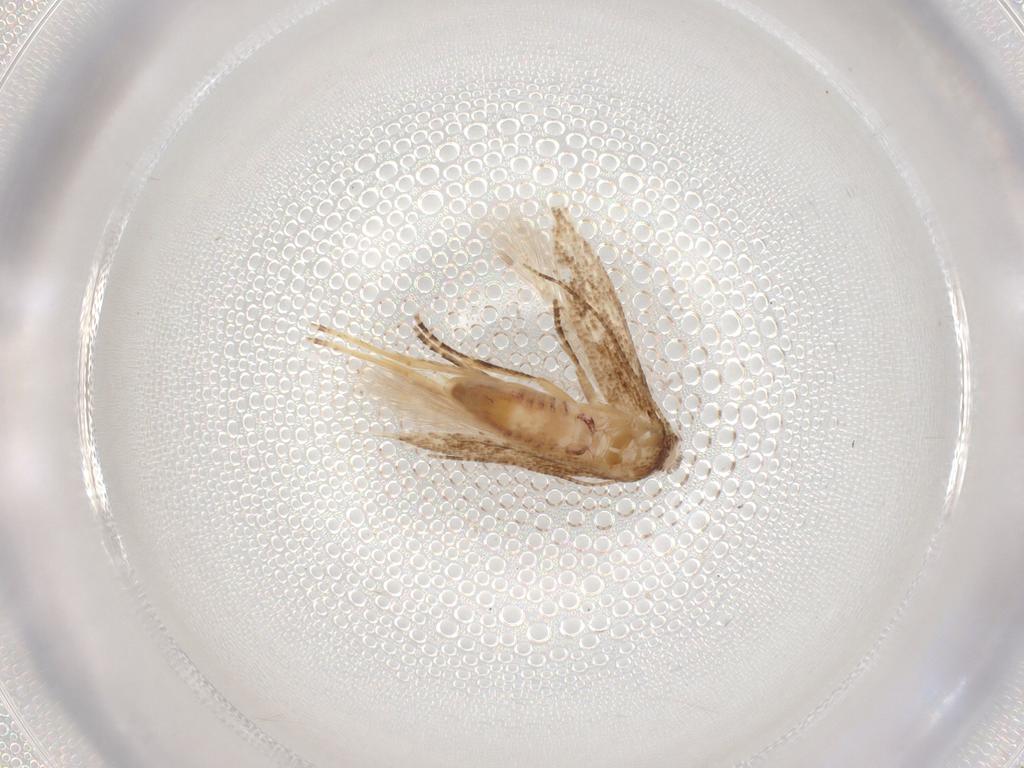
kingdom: Animalia
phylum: Arthropoda
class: Insecta
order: Lepidoptera
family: Bucculatricidae
